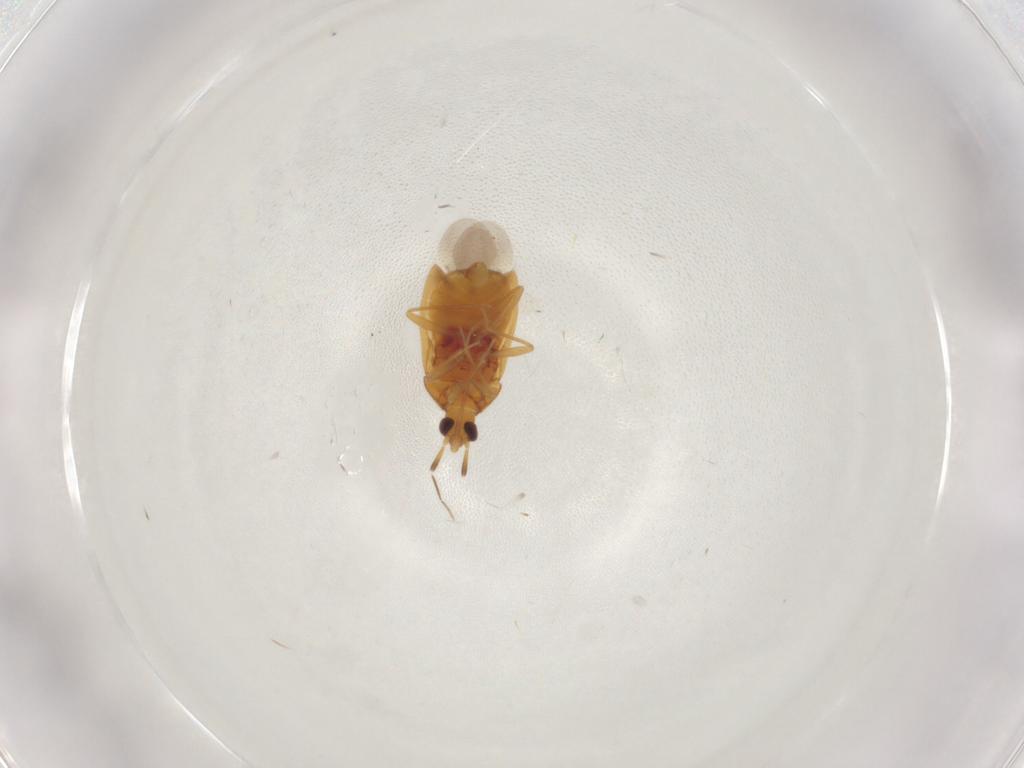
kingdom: Animalia
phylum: Arthropoda
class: Insecta
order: Psocodea
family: Liposcelididae
